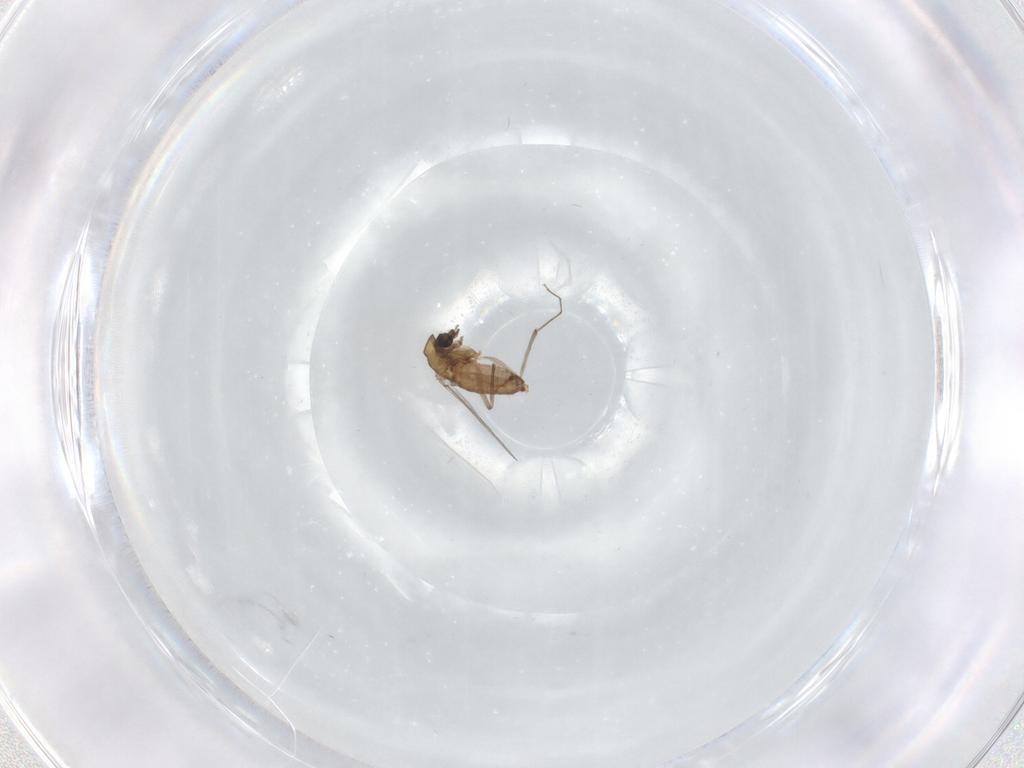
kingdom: Animalia
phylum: Arthropoda
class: Insecta
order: Diptera
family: Chironomidae
